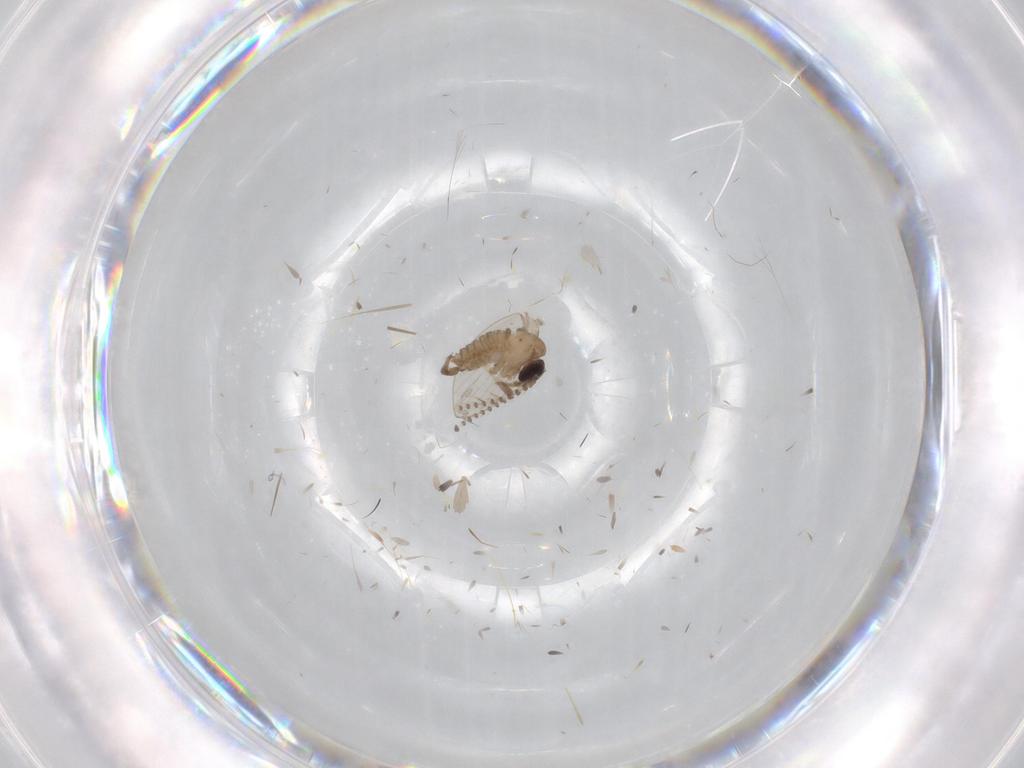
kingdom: Animalia
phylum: Arthropoda
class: Insecta
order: Diptera
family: Psychodidae
